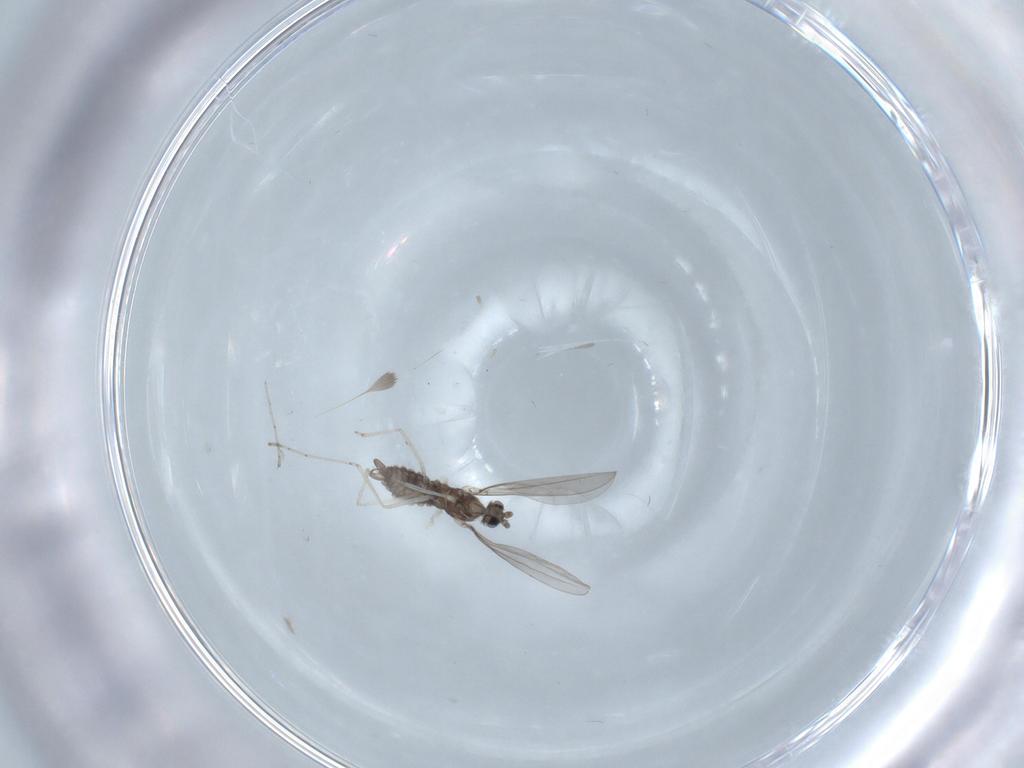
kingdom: Animalia
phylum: Arthropoda
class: Insecta
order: Diptera
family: Cecidomyiidae
